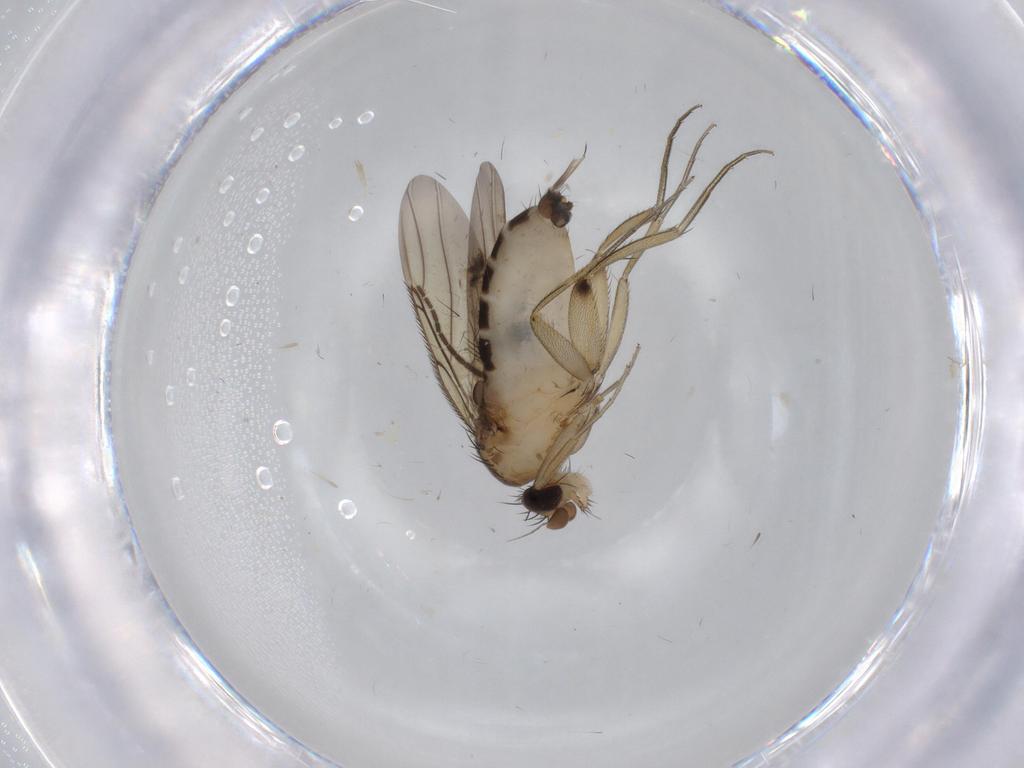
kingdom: Animalia
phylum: Arthropoda
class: Insecta
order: Diptera
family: Phoridae
